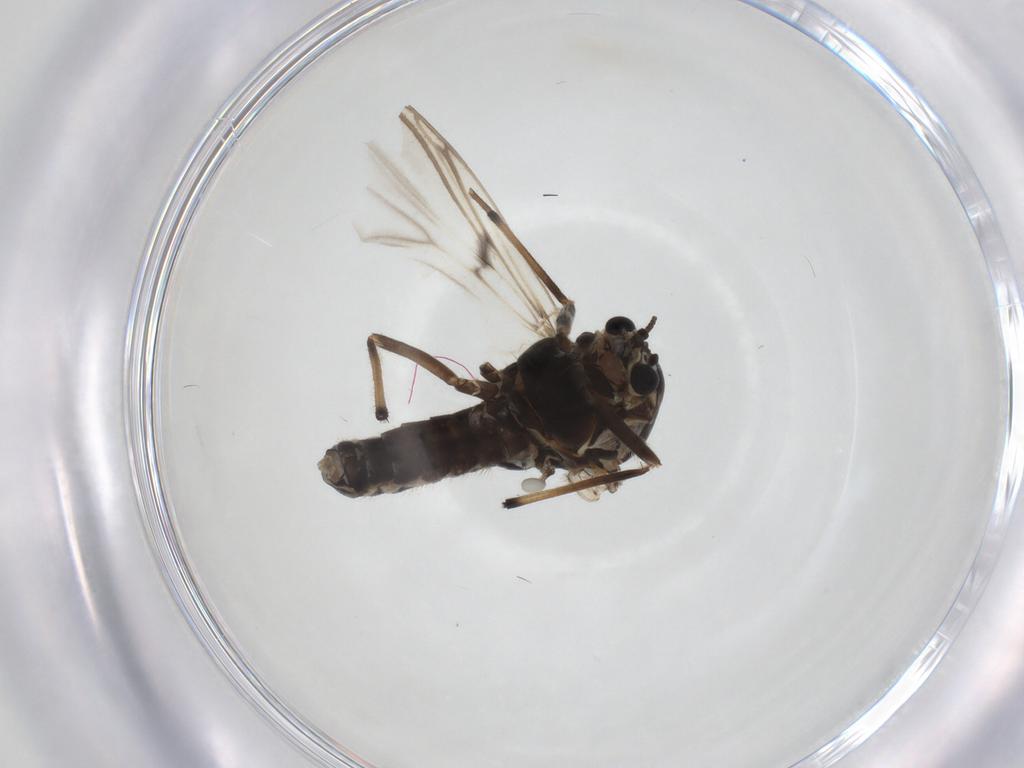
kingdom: Animalia
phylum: Arthropoda
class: Insecta
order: Diptera
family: Chironomidae
